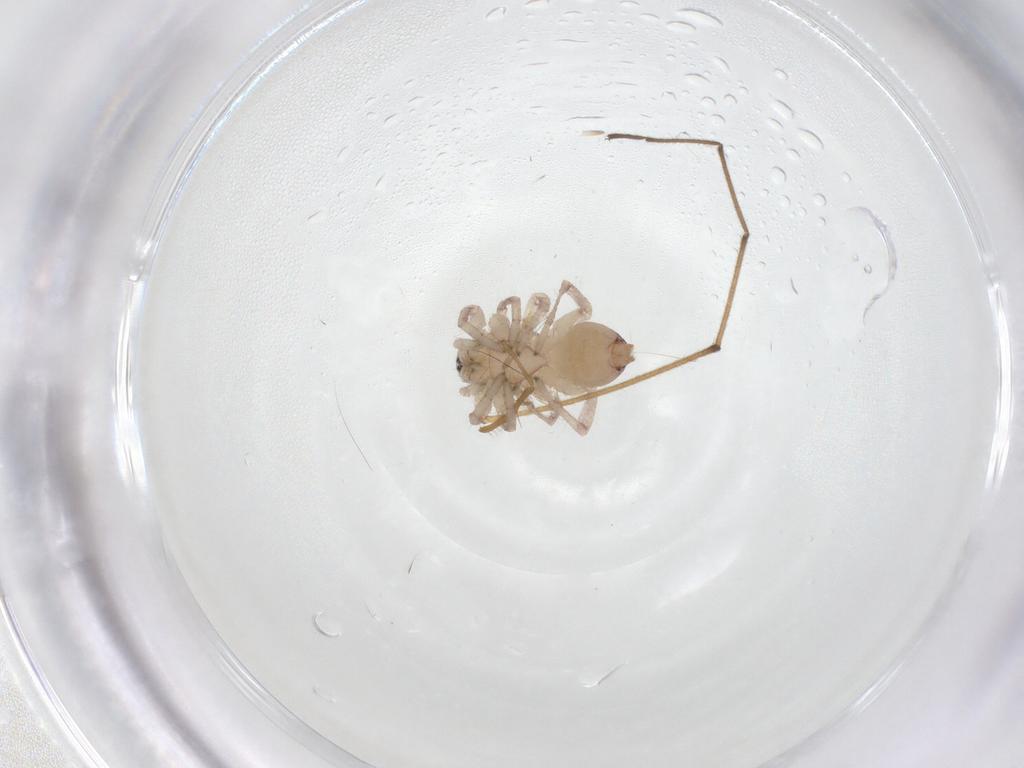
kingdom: Animalia
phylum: Arthropoda
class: Arachnida
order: Araneae
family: Clubionidae
